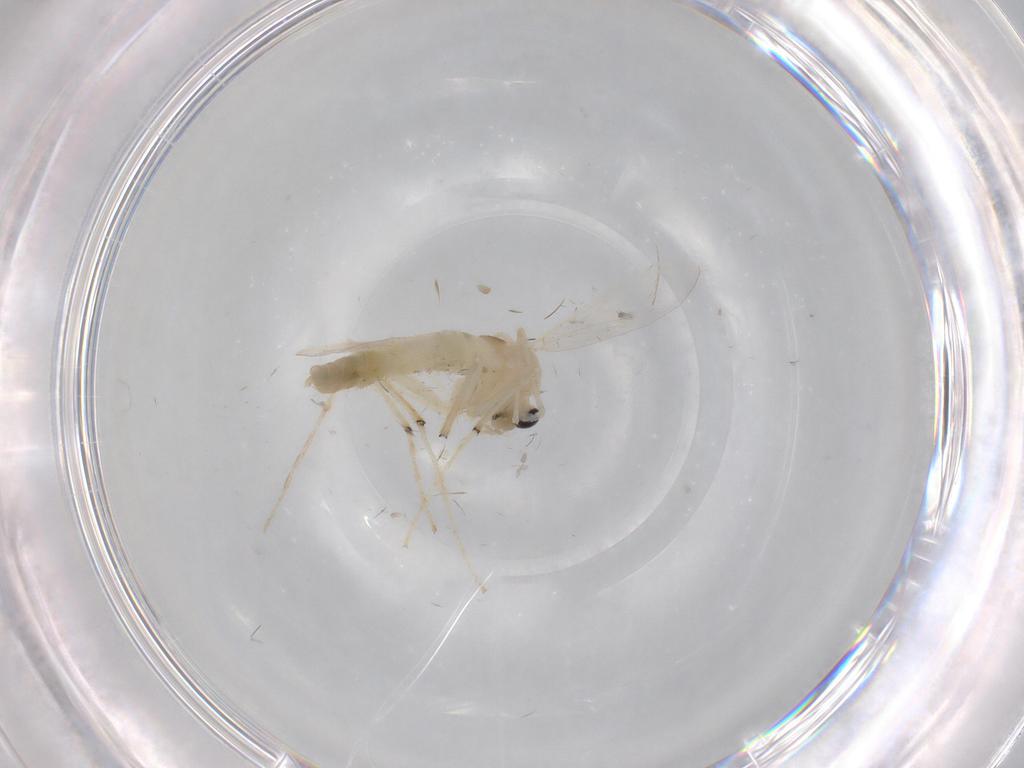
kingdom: Animalia
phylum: Arthropoda
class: Insecta
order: Diptera
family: Chironomidae
